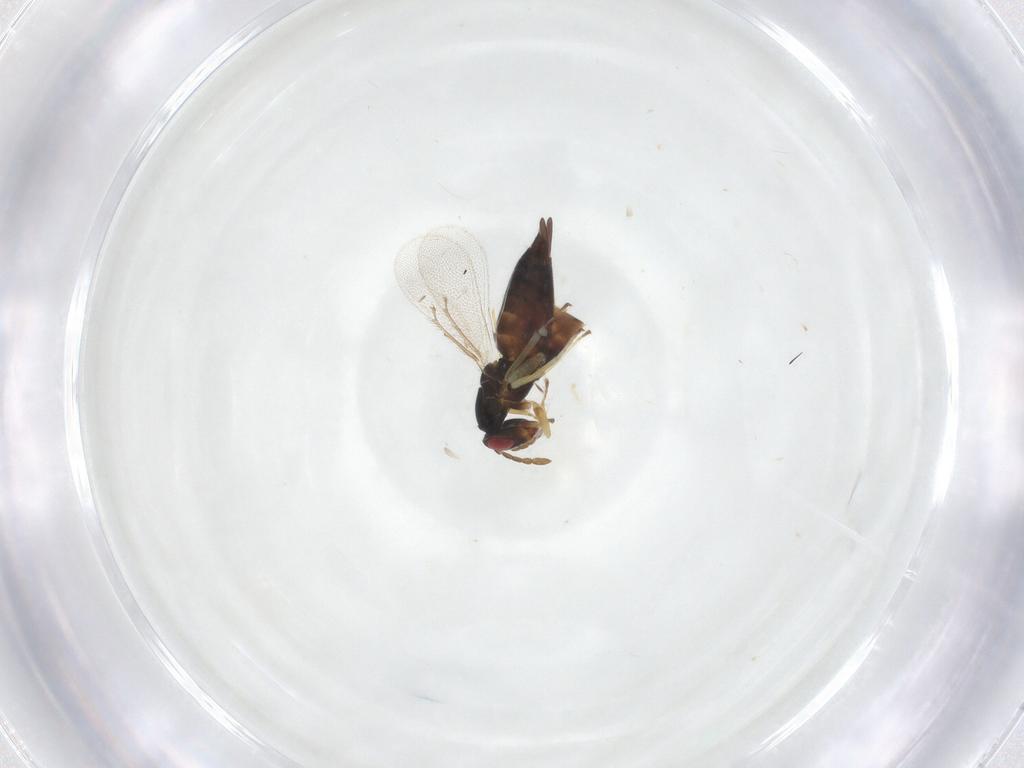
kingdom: Animalia
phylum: Arthropoda
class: Insecta
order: Hymenoptera
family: Eulophidae
